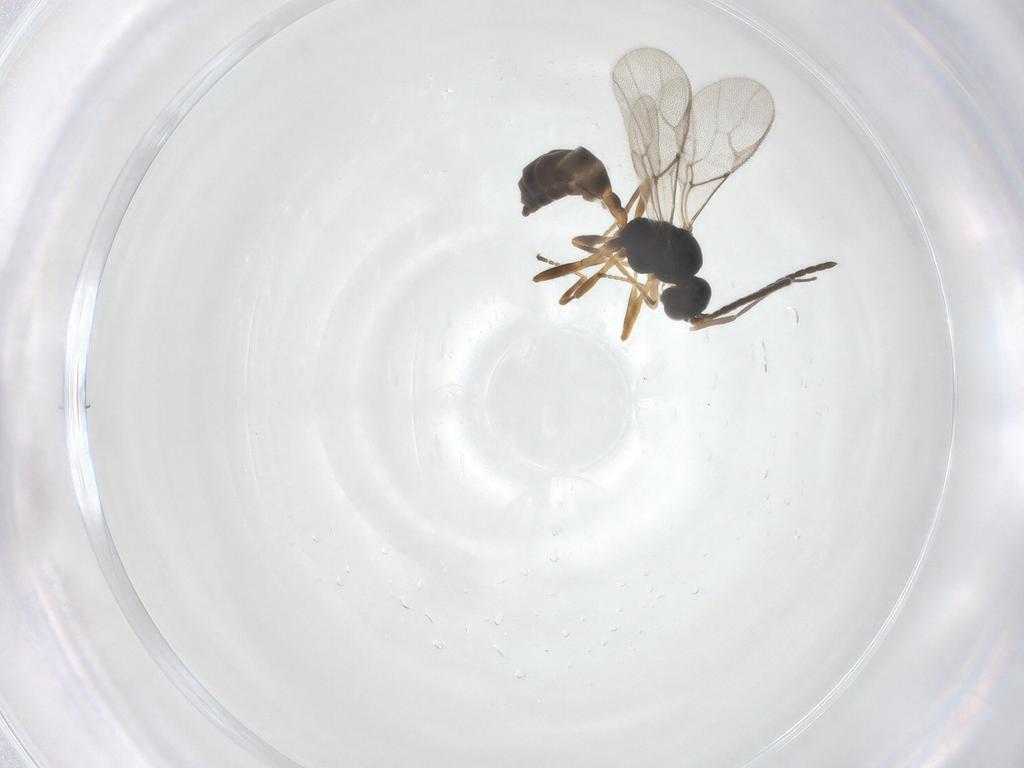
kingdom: Animalia
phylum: Arthropoda
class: Insecta
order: Hymenoptera
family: Braconidae
